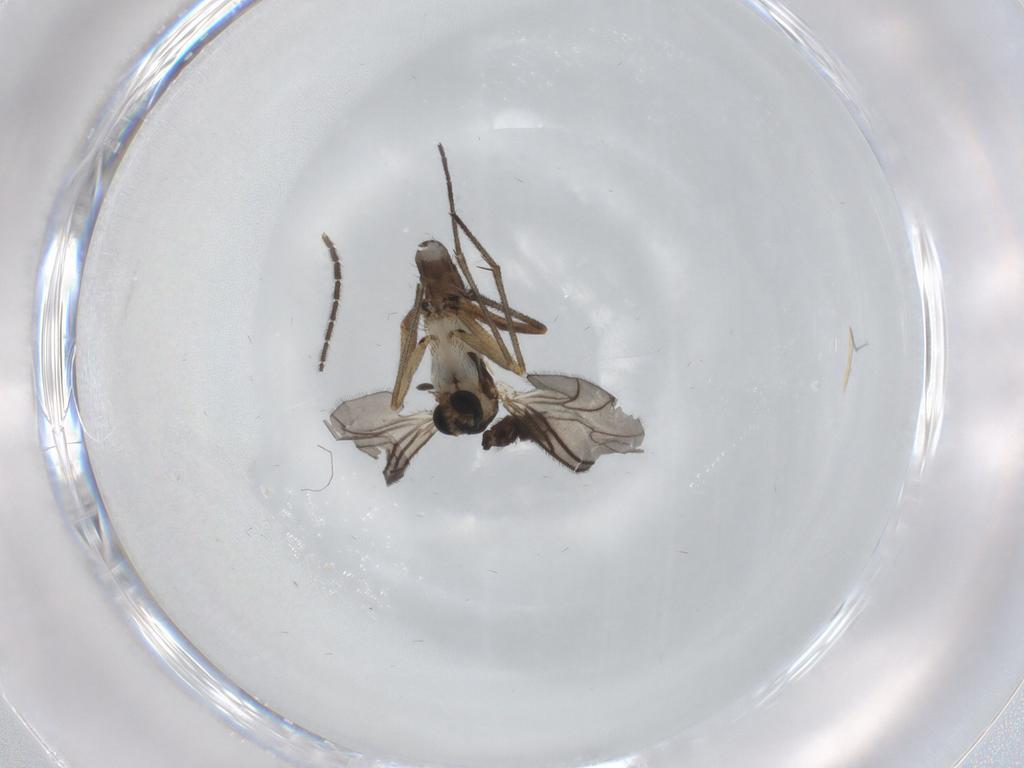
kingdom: Animalia
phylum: Arthropoda
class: Insecta
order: Diptera
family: Sciaridae
